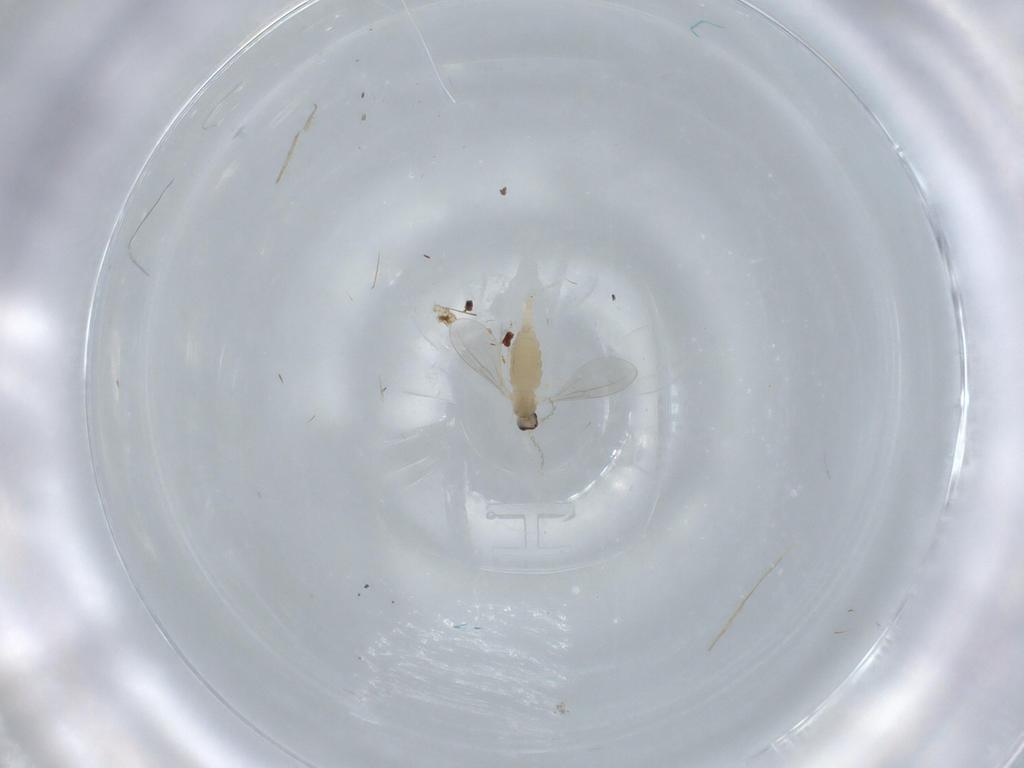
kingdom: Animalia
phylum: Arthropoda
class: Insecta
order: Diptera
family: Cecidomyiidae
